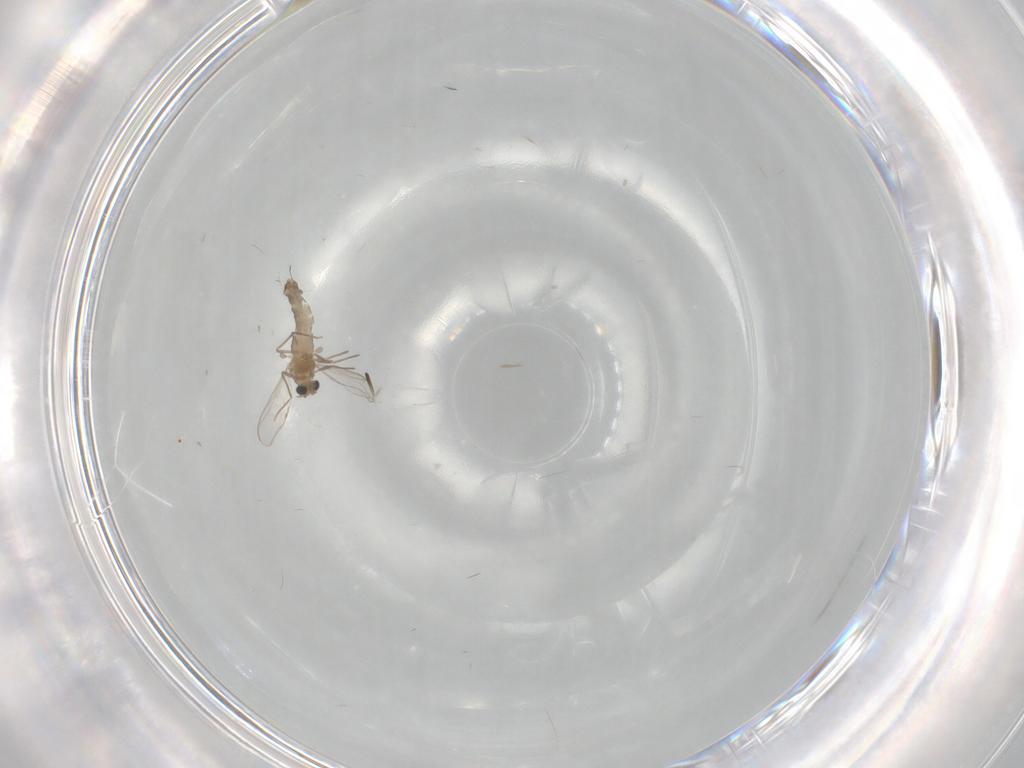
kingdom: Animalia
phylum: Arthropoda
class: Insecta
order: Diptera
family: Chironomidae
